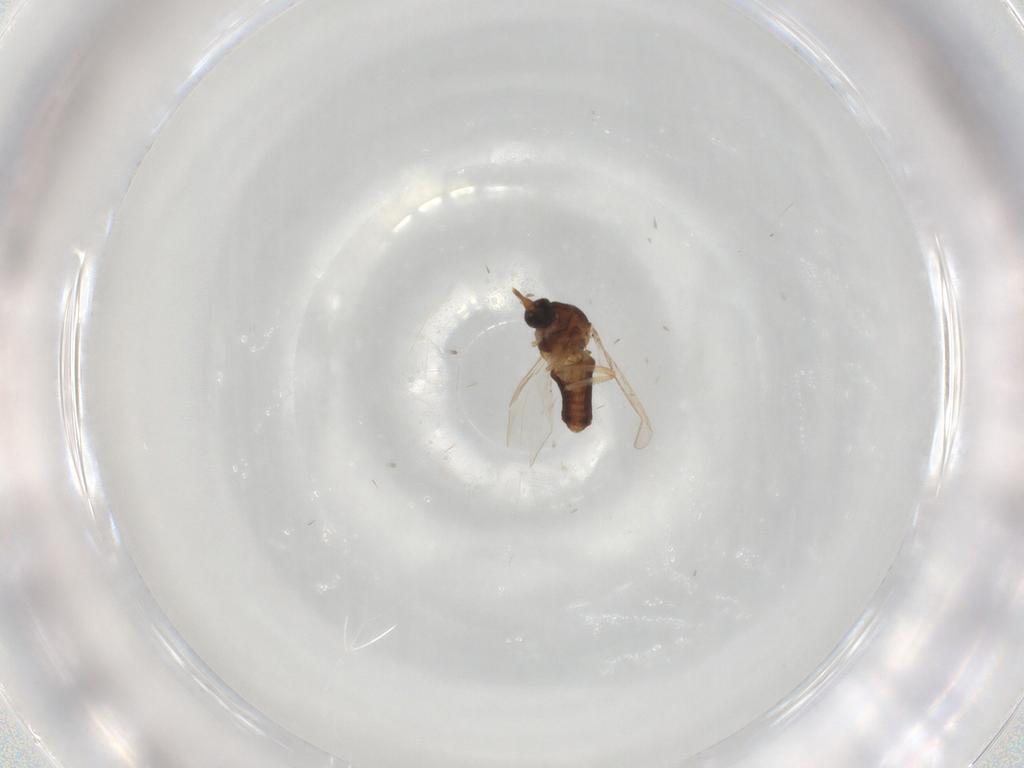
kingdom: Animalia
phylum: Arthropoda
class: Insecta
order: Diptera
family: Ceratopogonidae
